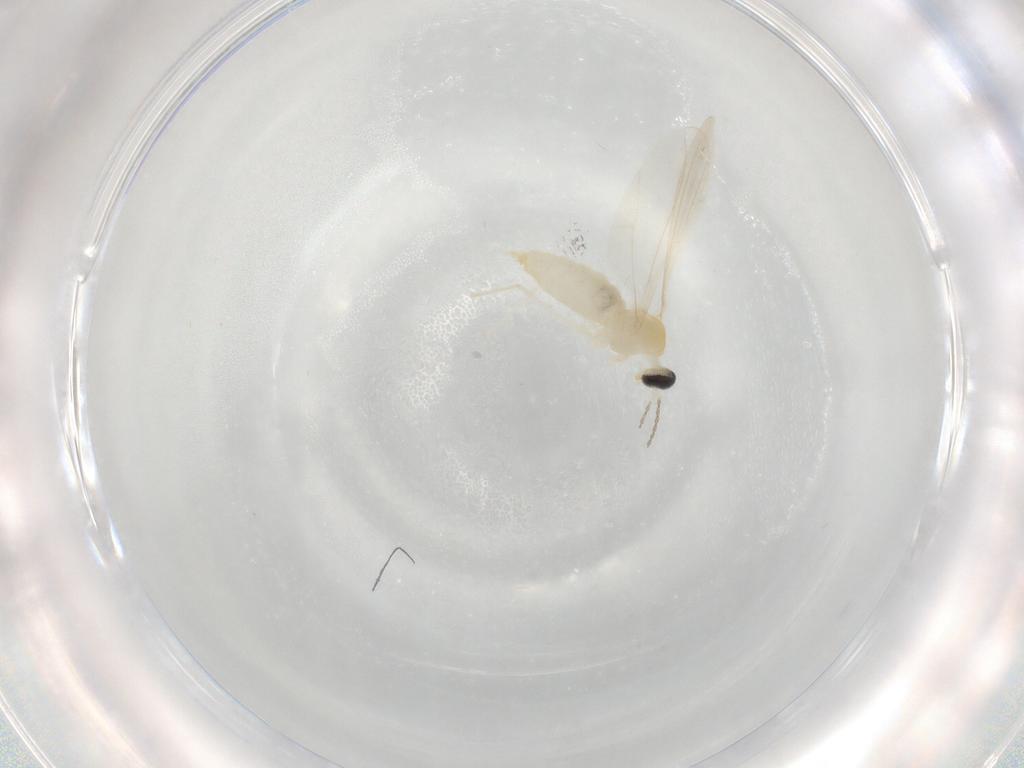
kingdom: Animalia
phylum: Arthropoda
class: Insecta
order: Diptera
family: Cecidomyiidae
